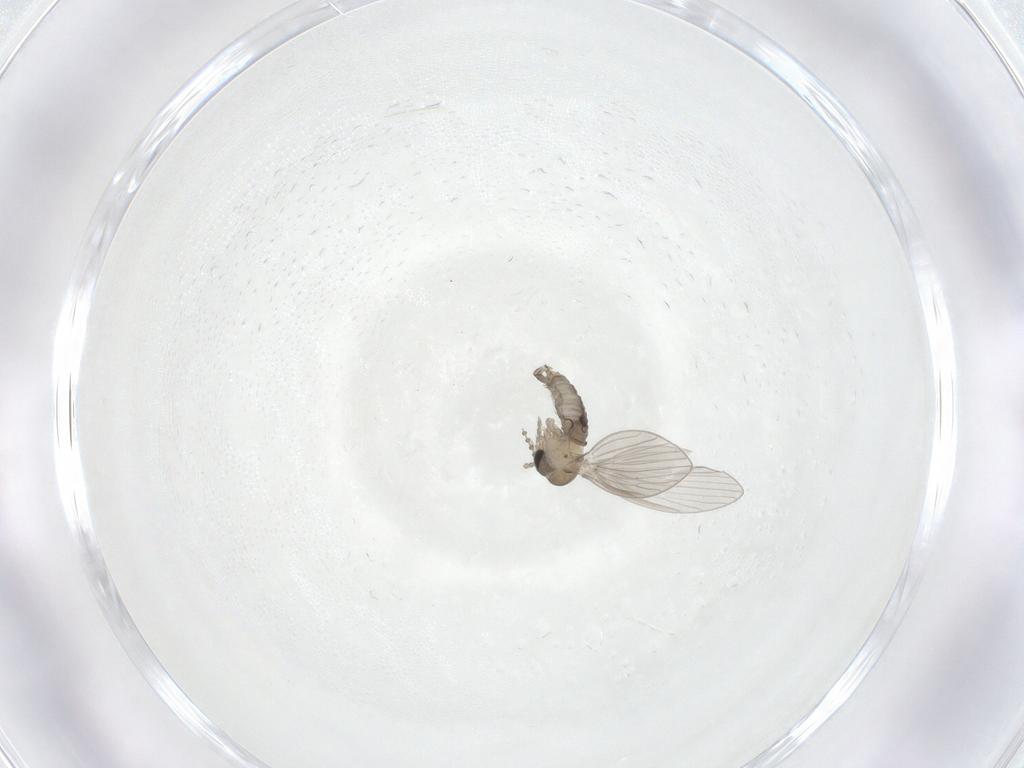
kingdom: Animalia
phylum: Arthropoda
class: Insecta
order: Diptera
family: Psychodidae
